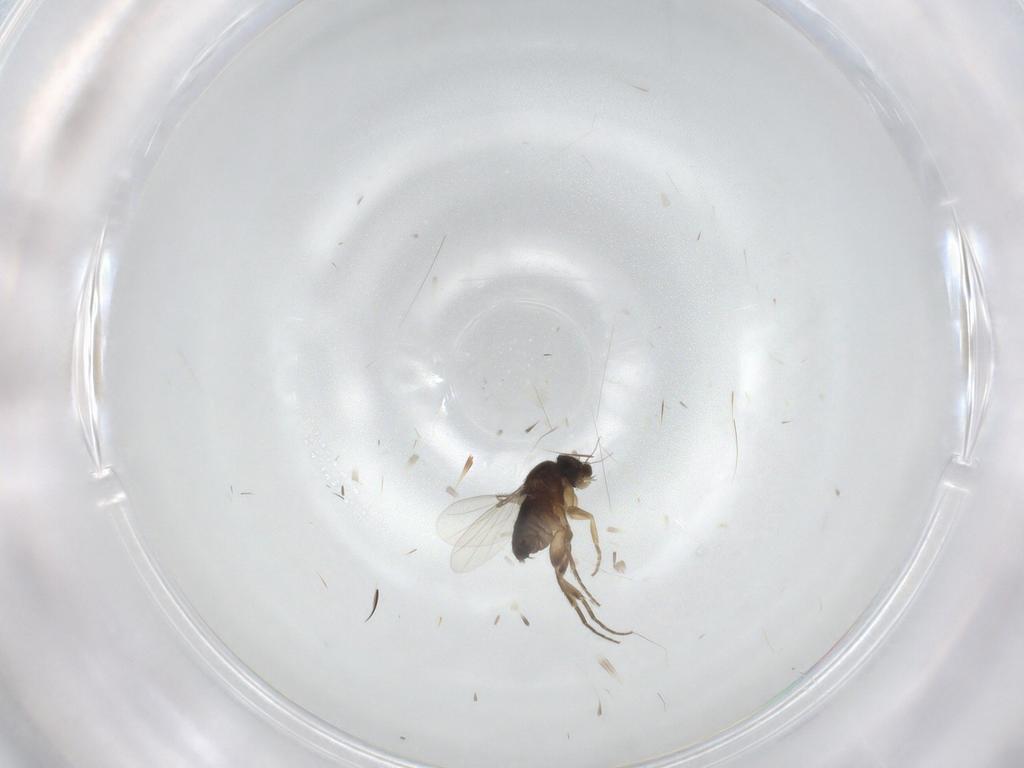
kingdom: Animalia
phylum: Arthropoda
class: Insecta
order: Diptera
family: Phoridae
